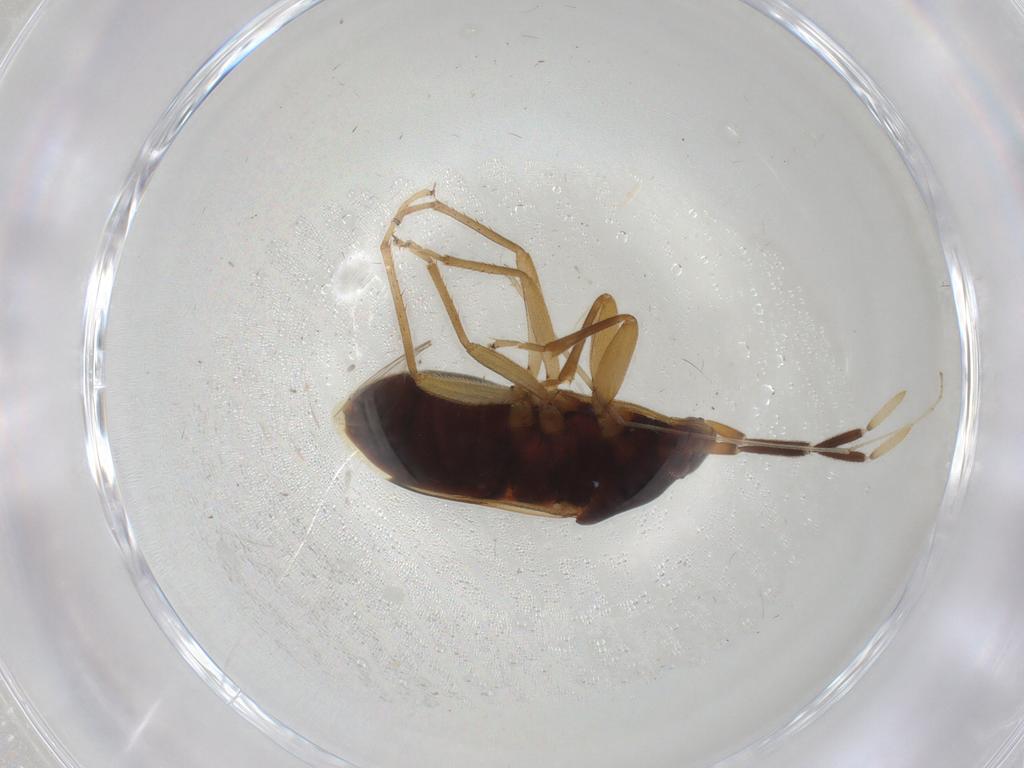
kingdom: Animalia
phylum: Arthropoda
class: Insecta
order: Hemiptera
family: Rhyparochromidae
